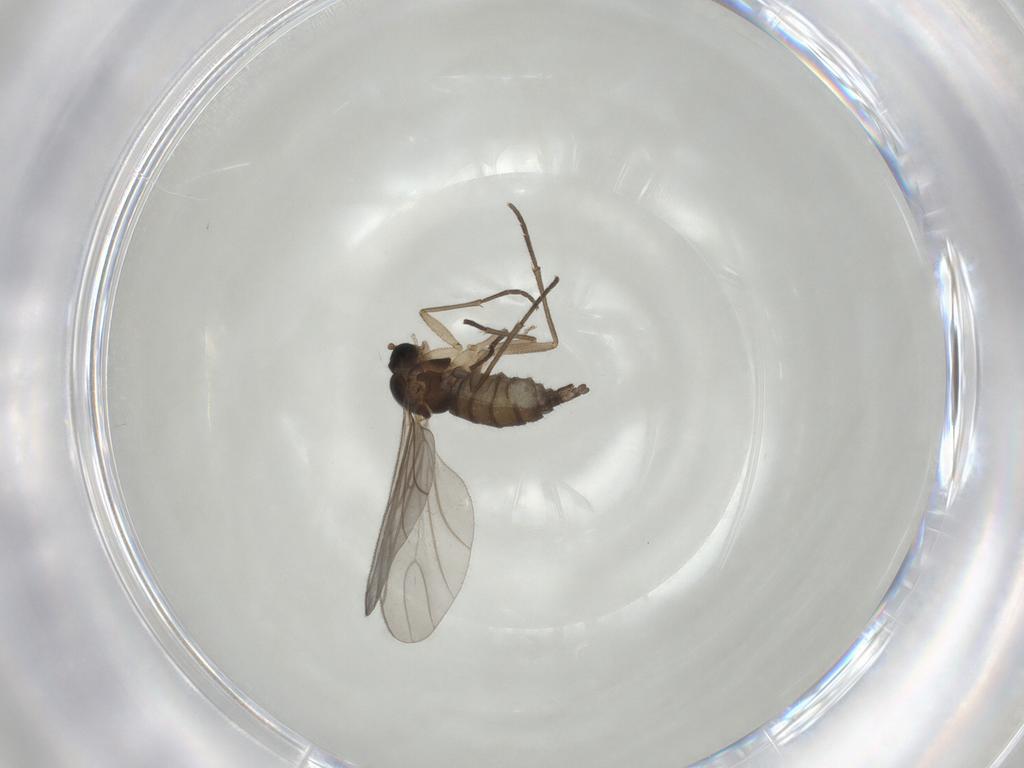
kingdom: Animalia
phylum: Arthropoda
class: Insecta
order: Diptera
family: Sciaridae
